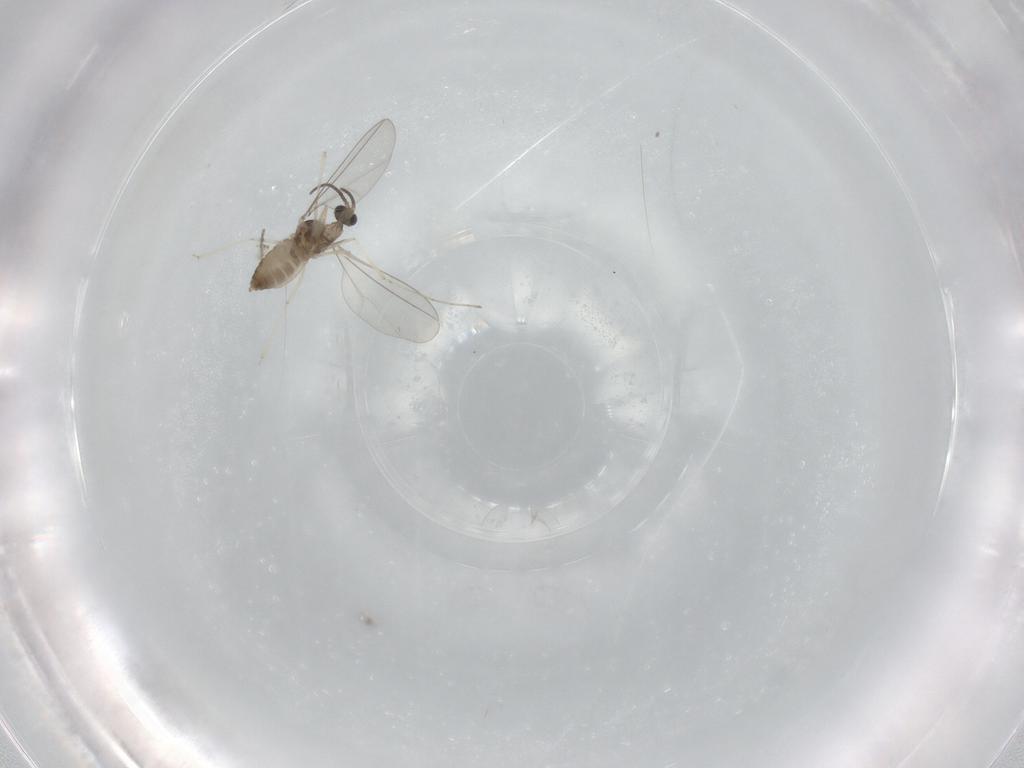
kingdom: Animalia
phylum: Arthropoda
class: Insecta
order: Diptera
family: Cecidomyiidae
